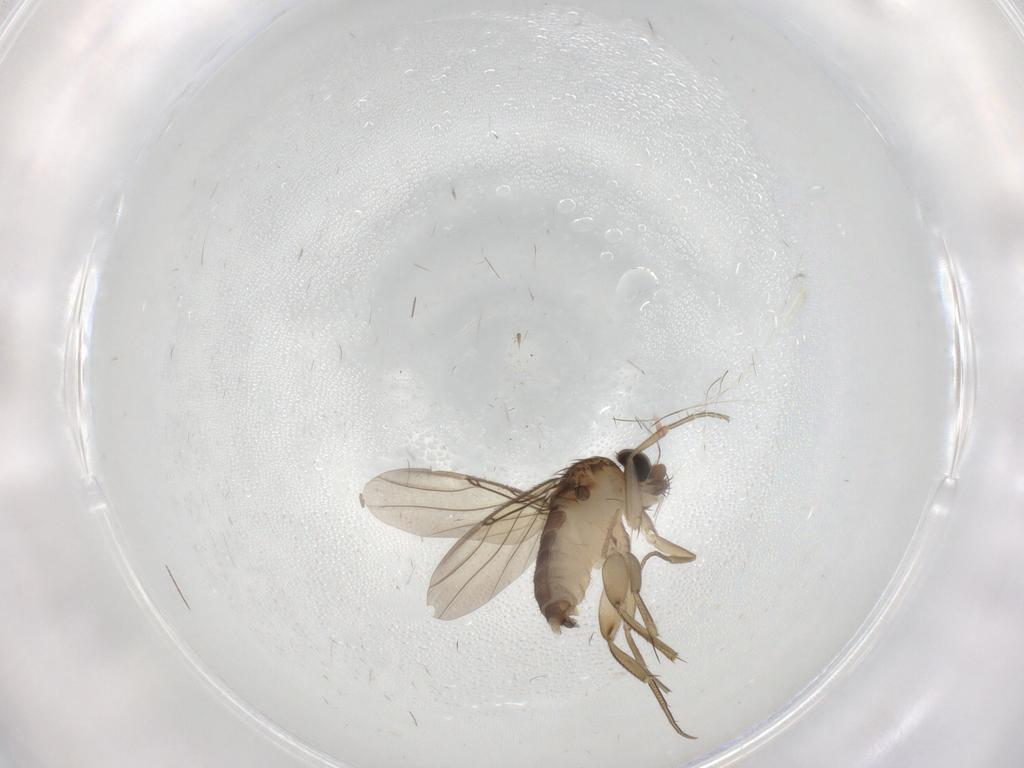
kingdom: Animalia
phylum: Arthropoda
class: Insecta
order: Diptera
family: Phoridae
